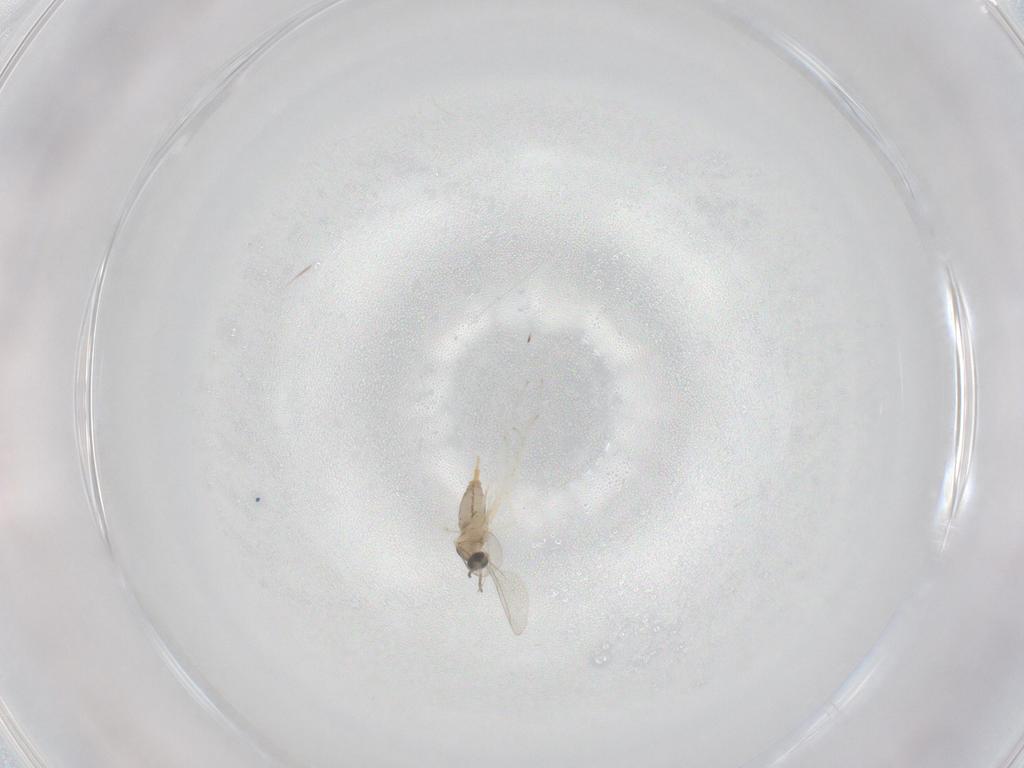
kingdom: Animalia
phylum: Arthropoda
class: Insecta
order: Diptera
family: Cecidomyiidae
